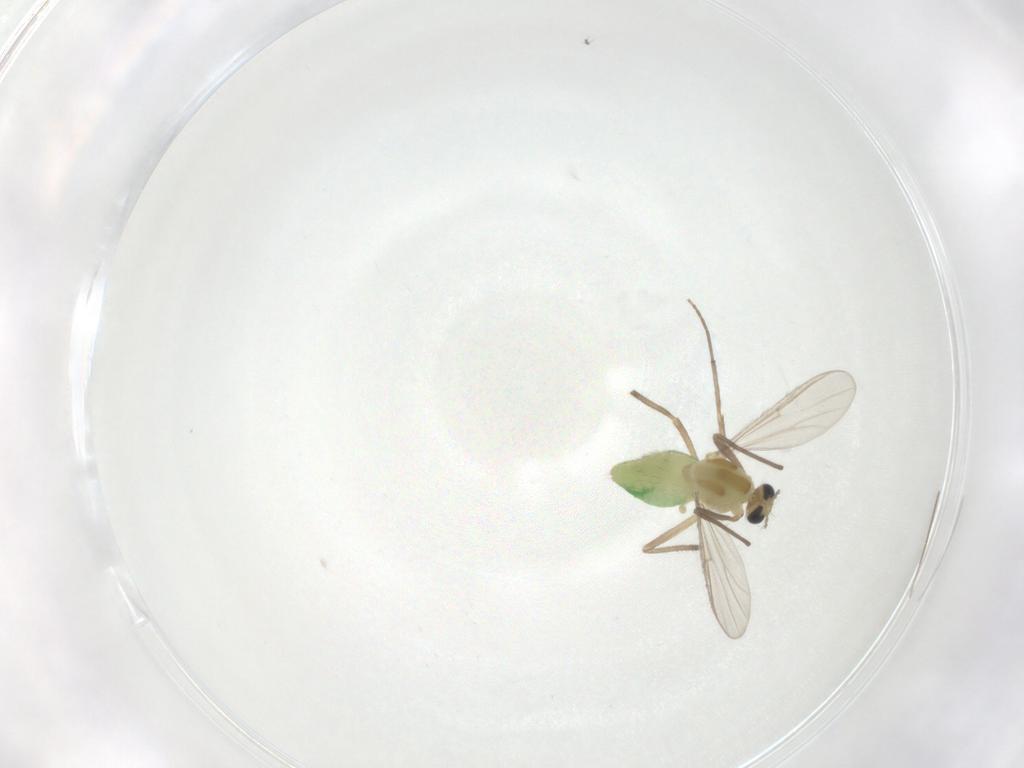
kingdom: Animalia
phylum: Arthropoda
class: Insecta
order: Diptera
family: Chironomidae
